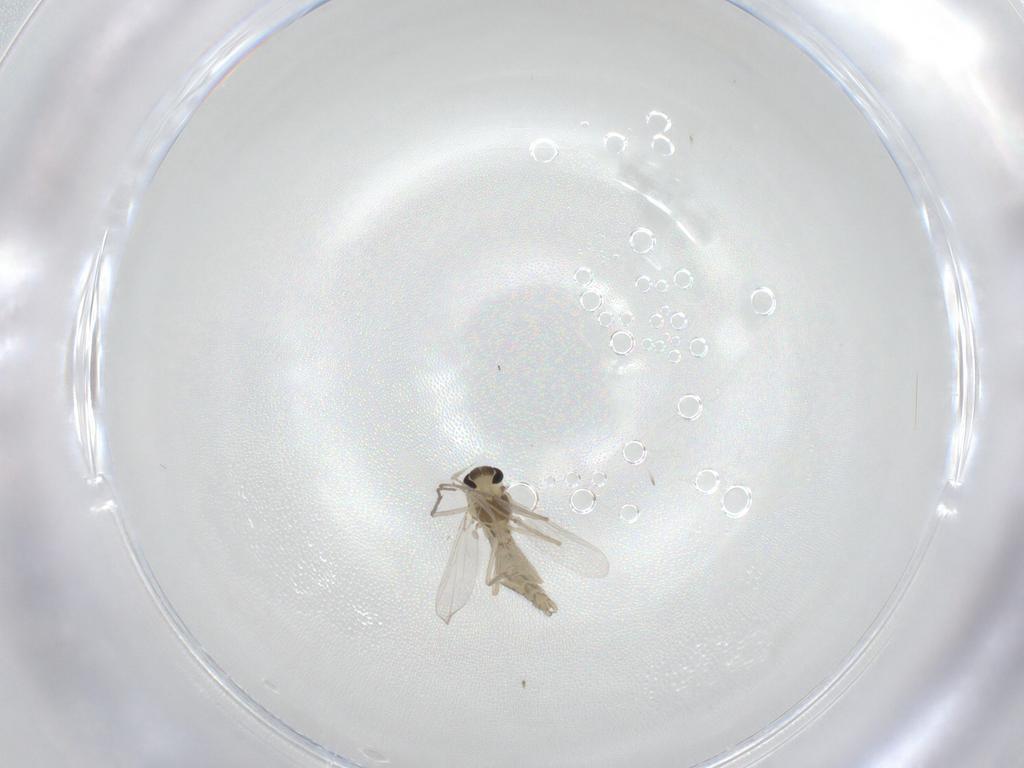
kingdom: Animalia
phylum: Arthropoda
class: Insecta
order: Diptera
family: Chironomidae
